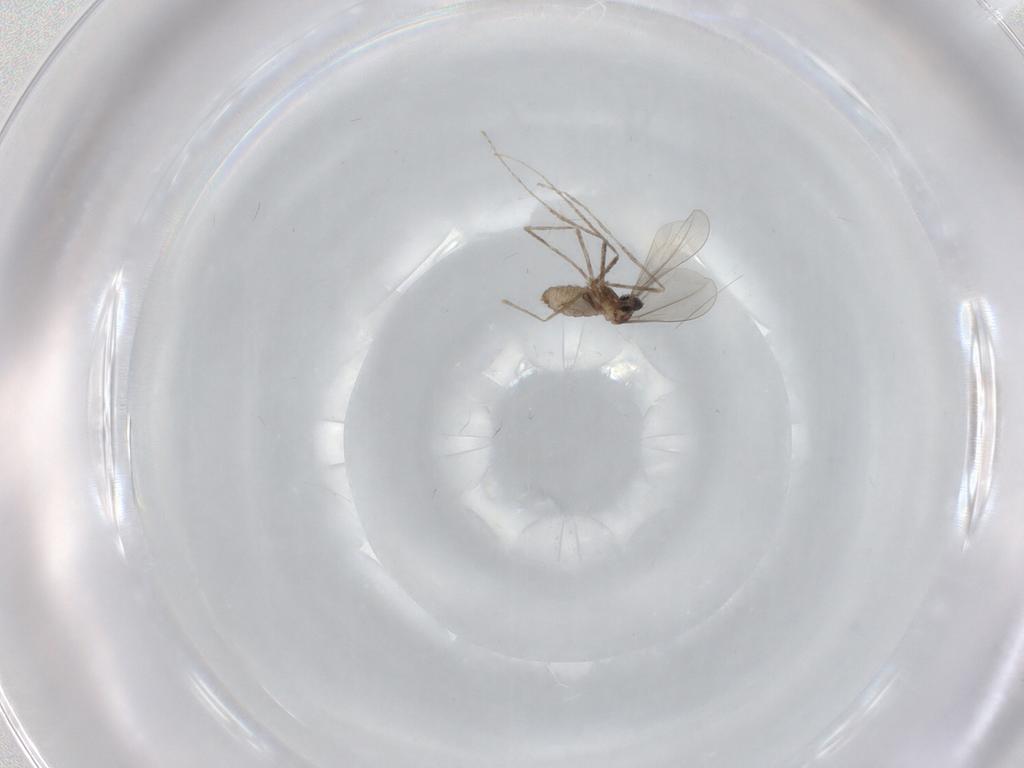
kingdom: Animalia
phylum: Arthropoda
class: Insecta
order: Diptera
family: Cecidomyiidae
